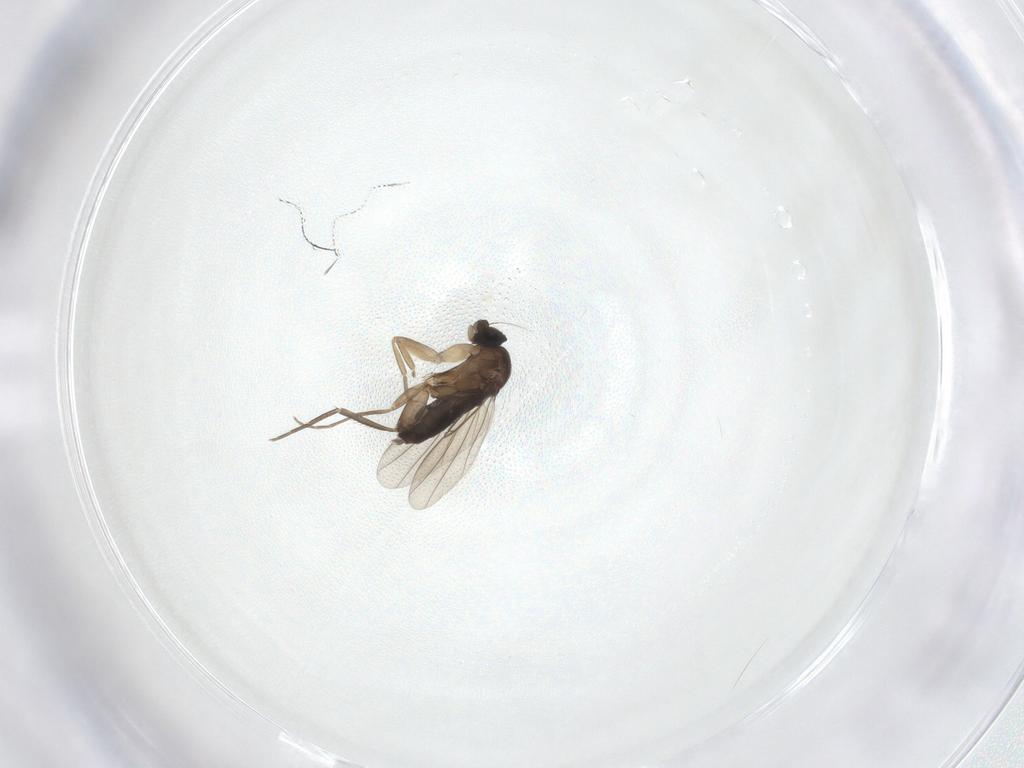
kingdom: Animalia
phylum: Arthropoda
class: Insecta
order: Diptera
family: Phoridae
